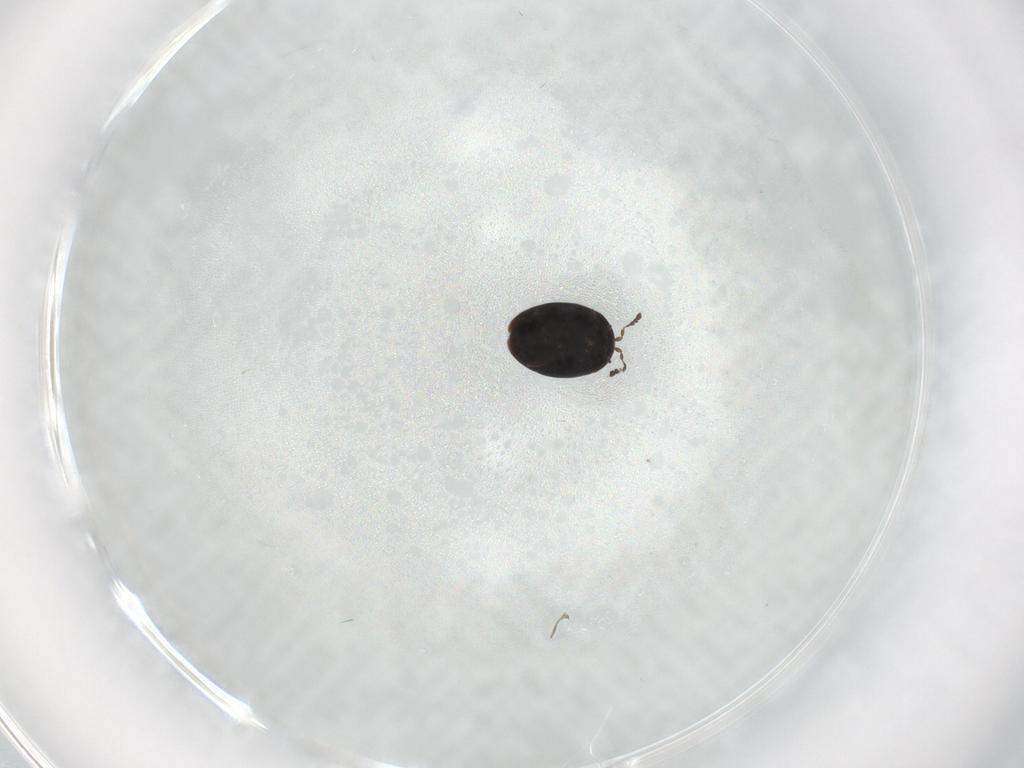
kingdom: Animalia
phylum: Arthropoda
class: Insecta
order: Coleoptera
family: Corylophidae
